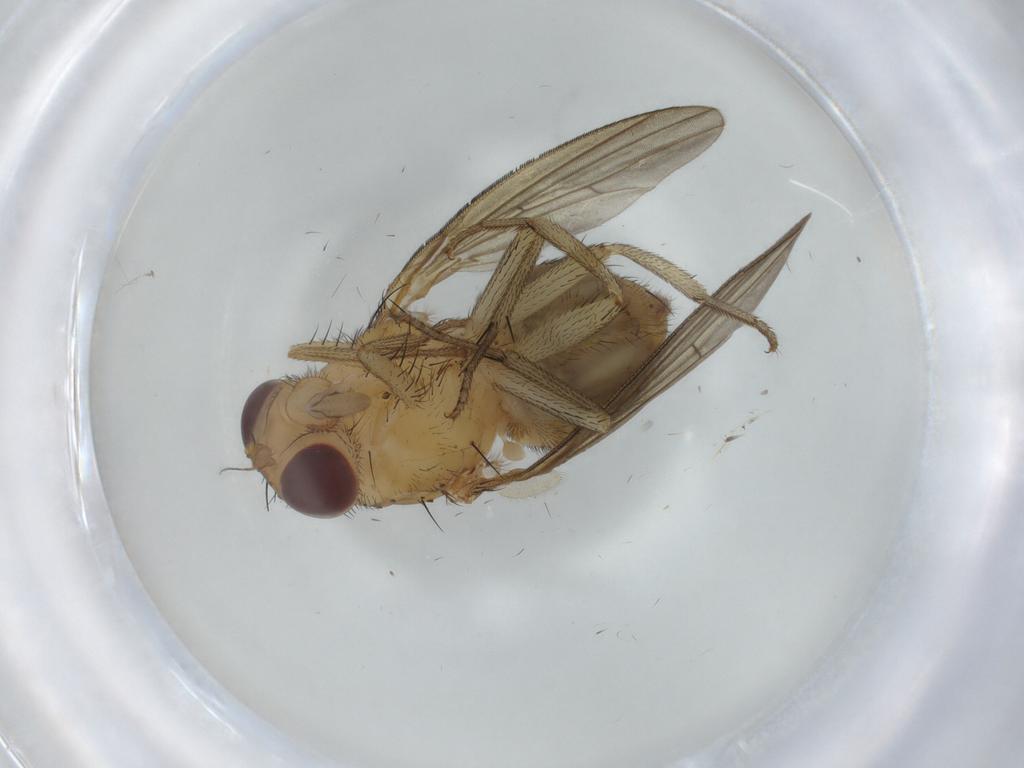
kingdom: Animalia
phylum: Arthropoda
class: Insecta
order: Diptera
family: Lauxaniidae
